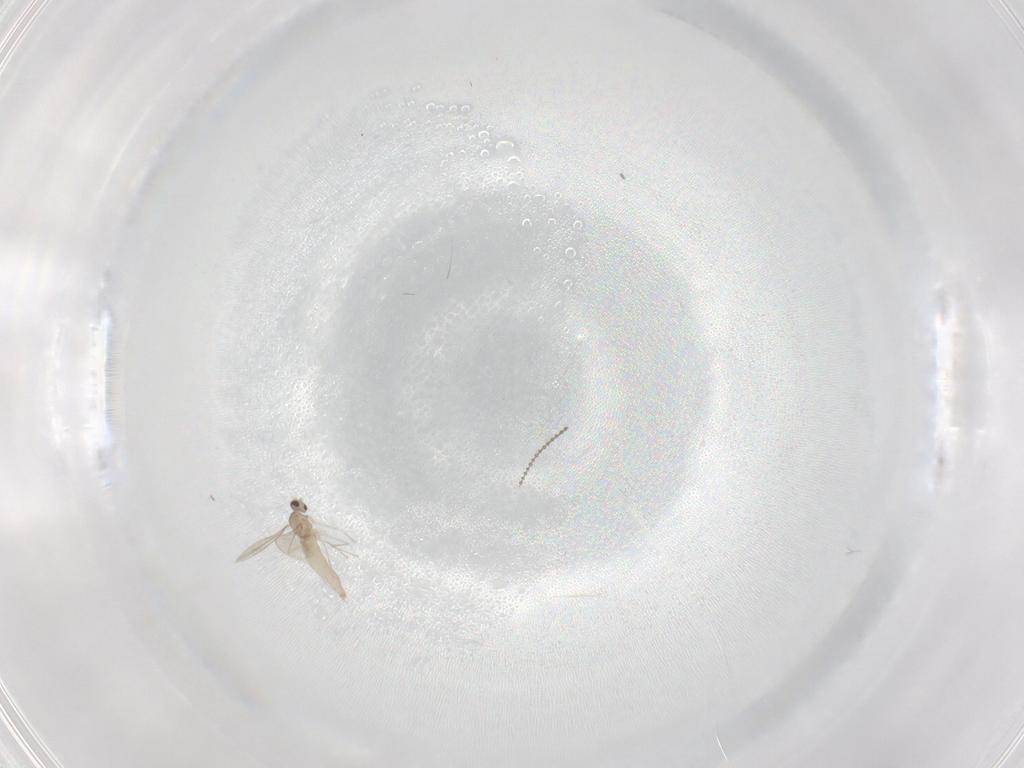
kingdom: Animalia
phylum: Arthropoda
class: Insecta
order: Diptera
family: Cecidomyiidae
